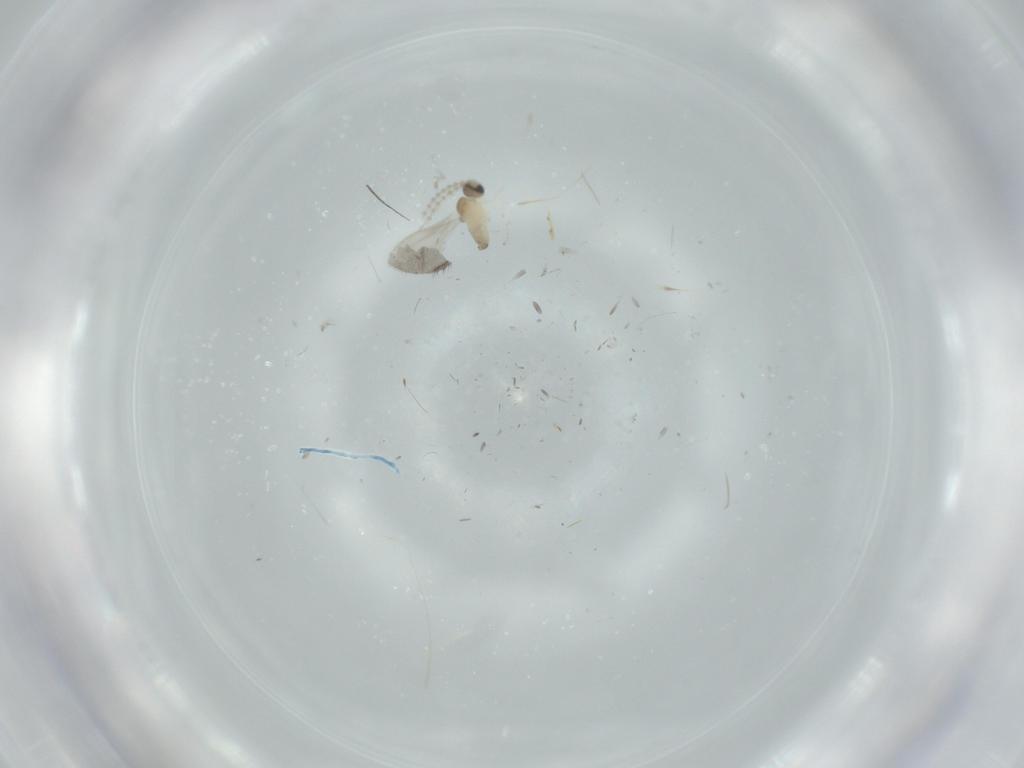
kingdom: Animalia
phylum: Arthropoda
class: Insecta
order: Diptera
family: Cecidomyiidae
